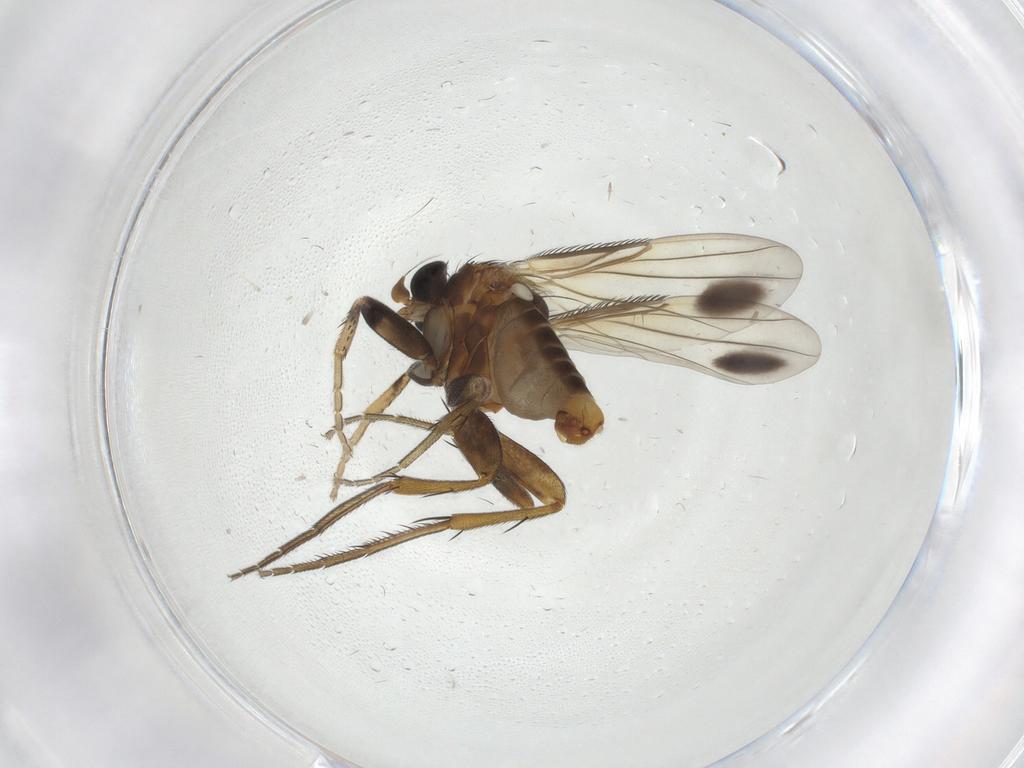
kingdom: Animalia
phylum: Arthropoda
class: Insecta
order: Diptera
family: Phoridae
